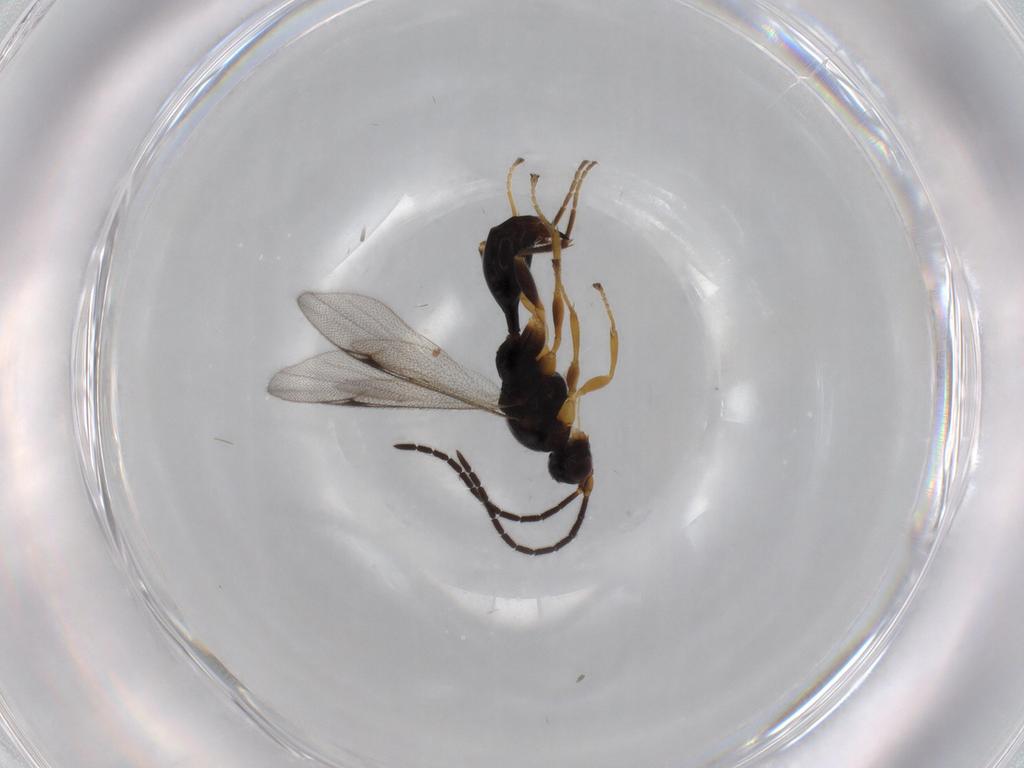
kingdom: Animalia
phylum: Arthropoda
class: Insecta
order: Hymenoptera
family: Proctotrupidae
